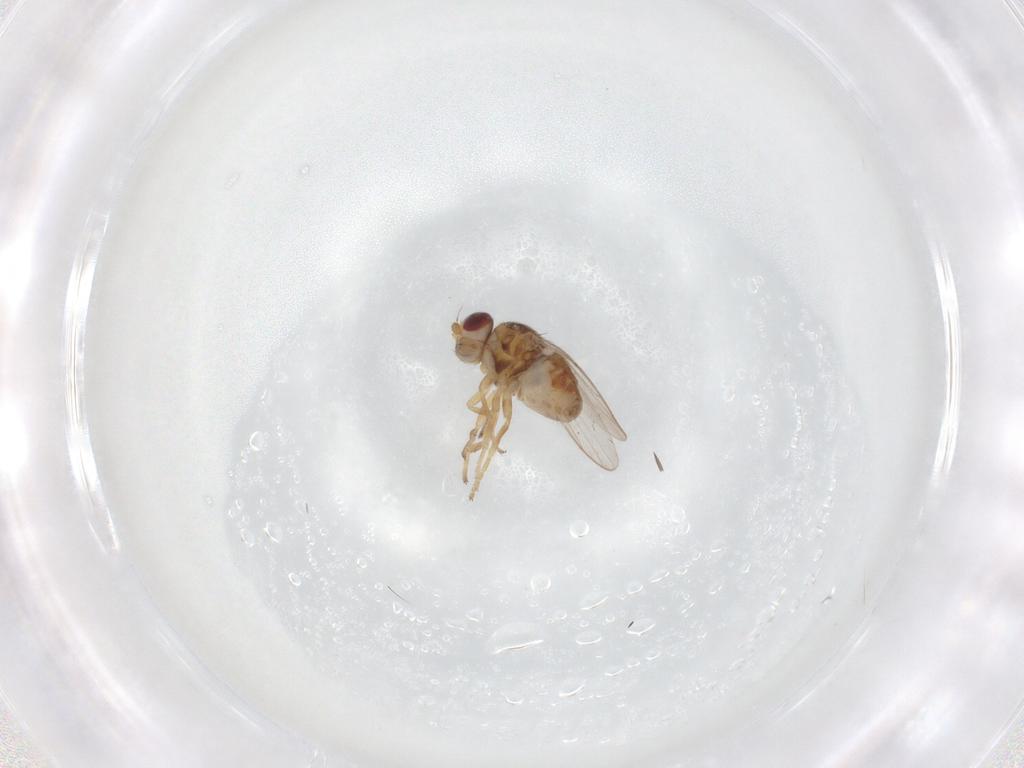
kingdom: Animalia
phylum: Arthropoda
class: Insecta
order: Diptera
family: Chloropidae
